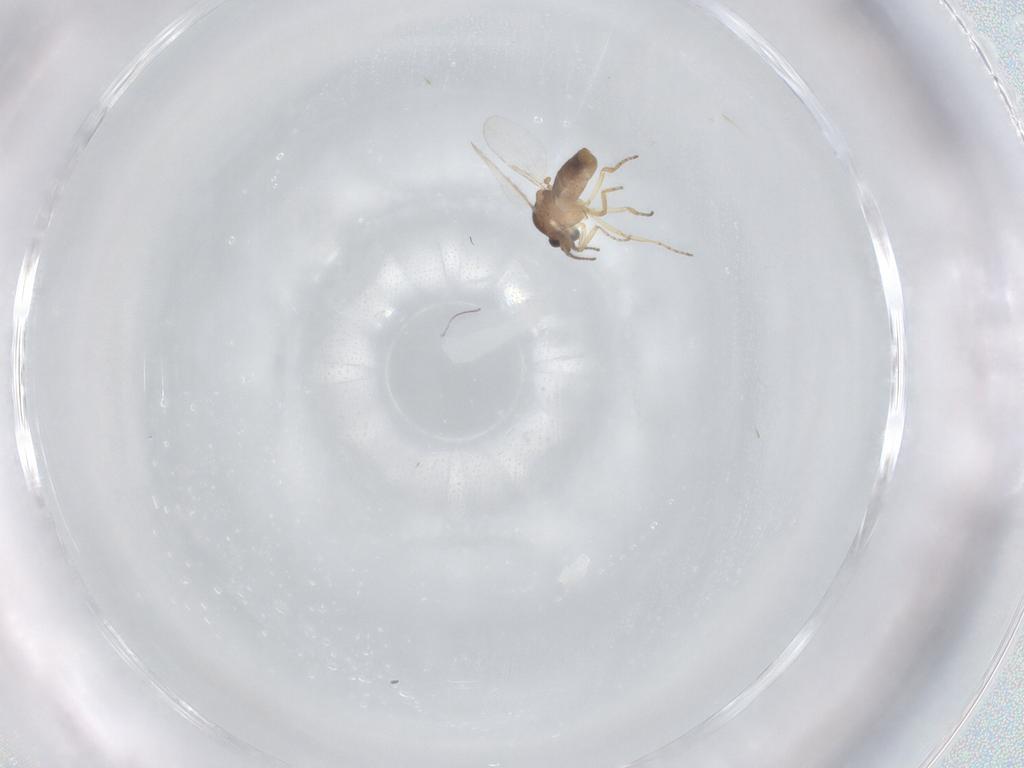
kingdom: Animalia
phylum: Arthropoda
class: Insecta
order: Diptera
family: Ceratopogonidae
